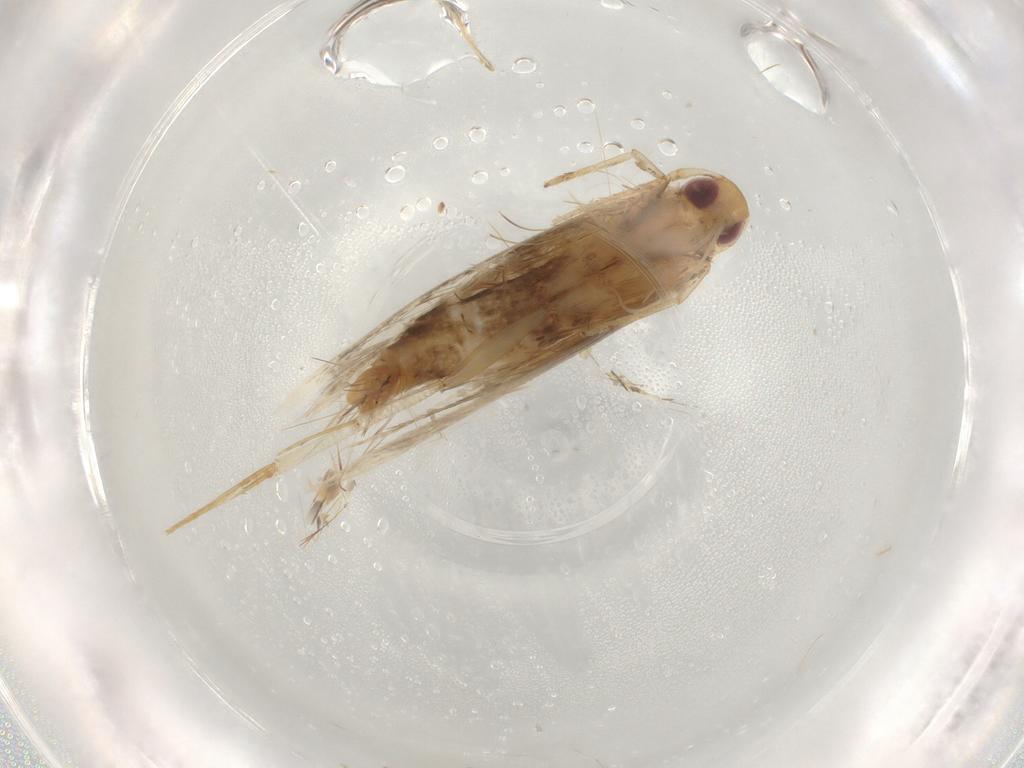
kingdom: Animalia
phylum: Arthropoda
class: Insecta
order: Lepidoptera
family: Cosmopterigidae
